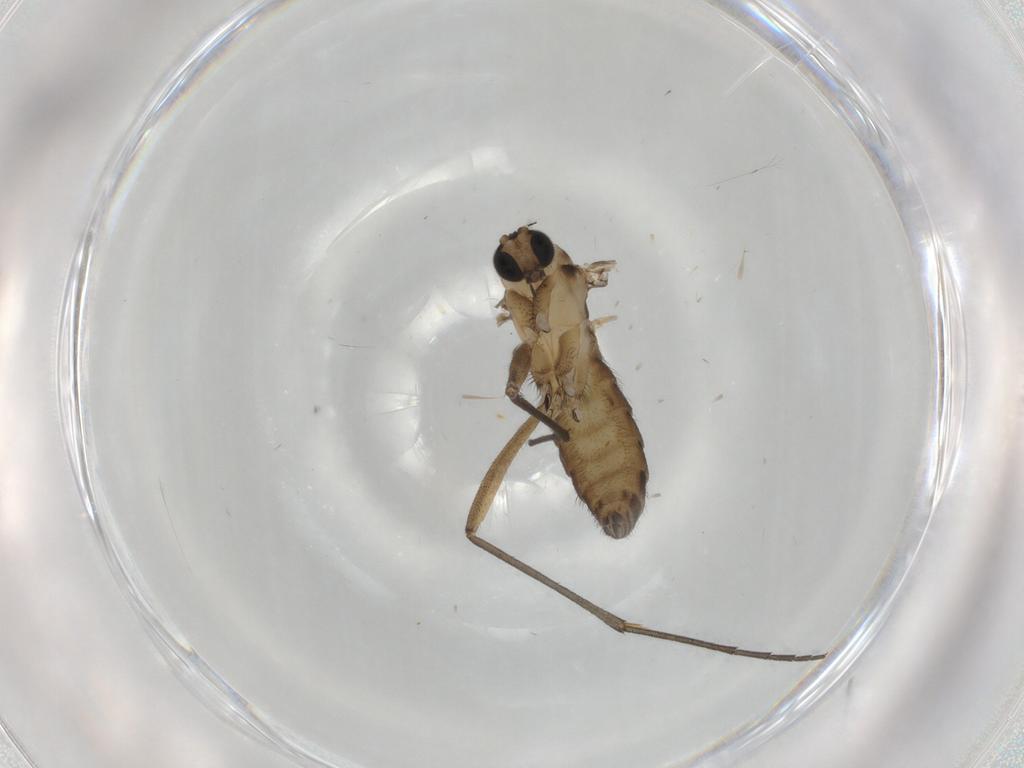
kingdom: Animalia
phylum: Arthropoda
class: Insecta
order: Diptera
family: Sciaridae
